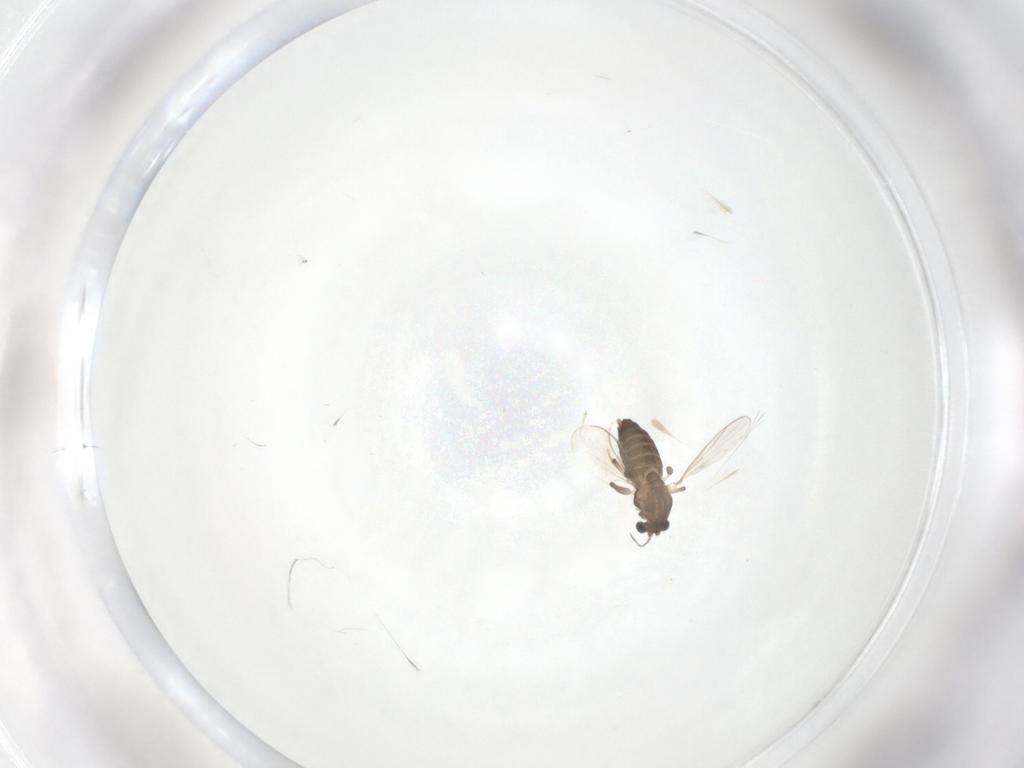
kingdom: Animalia
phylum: Arthropoda
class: Insecta
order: Diptera
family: Chironomidae
